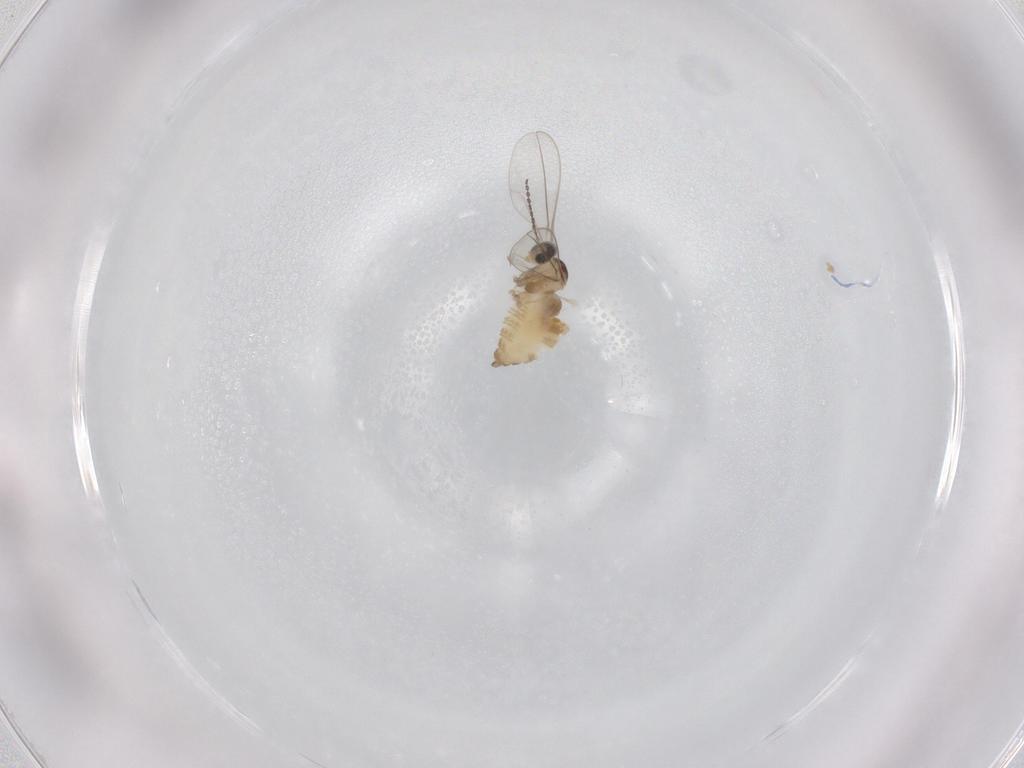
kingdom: Animalia
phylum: Arthropoda
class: Insecta
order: Diptera
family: Cecidomyiidae
